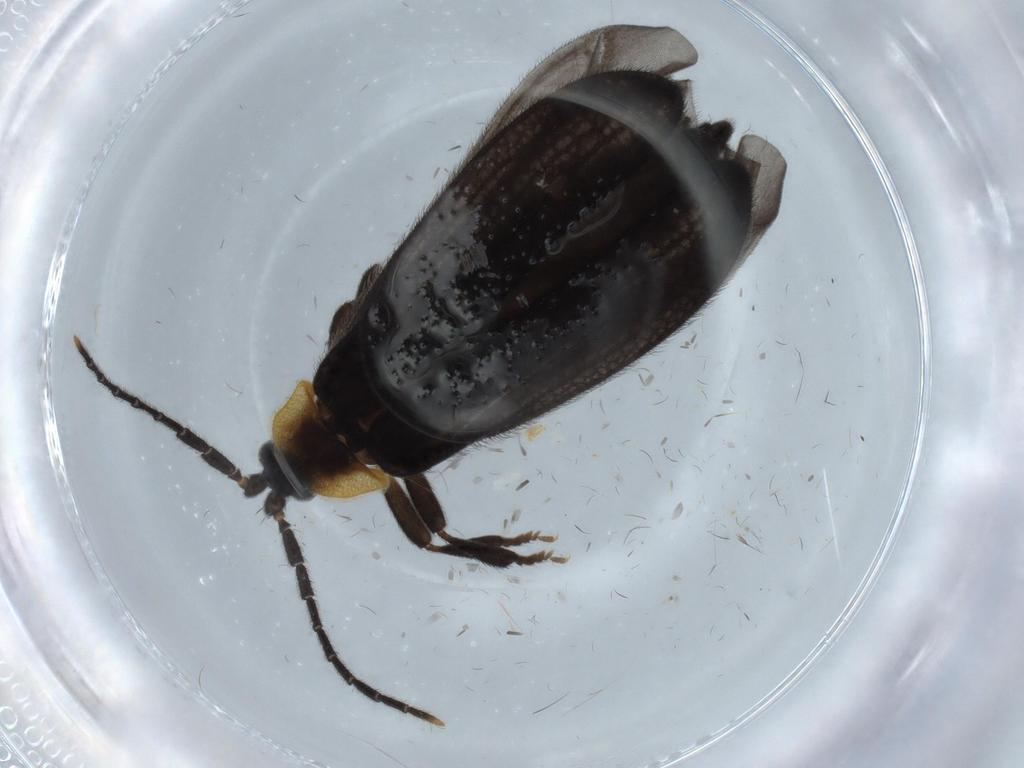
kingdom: Animalia
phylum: Arthropoda
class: Insecta
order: Coleoptera
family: Lycidae
